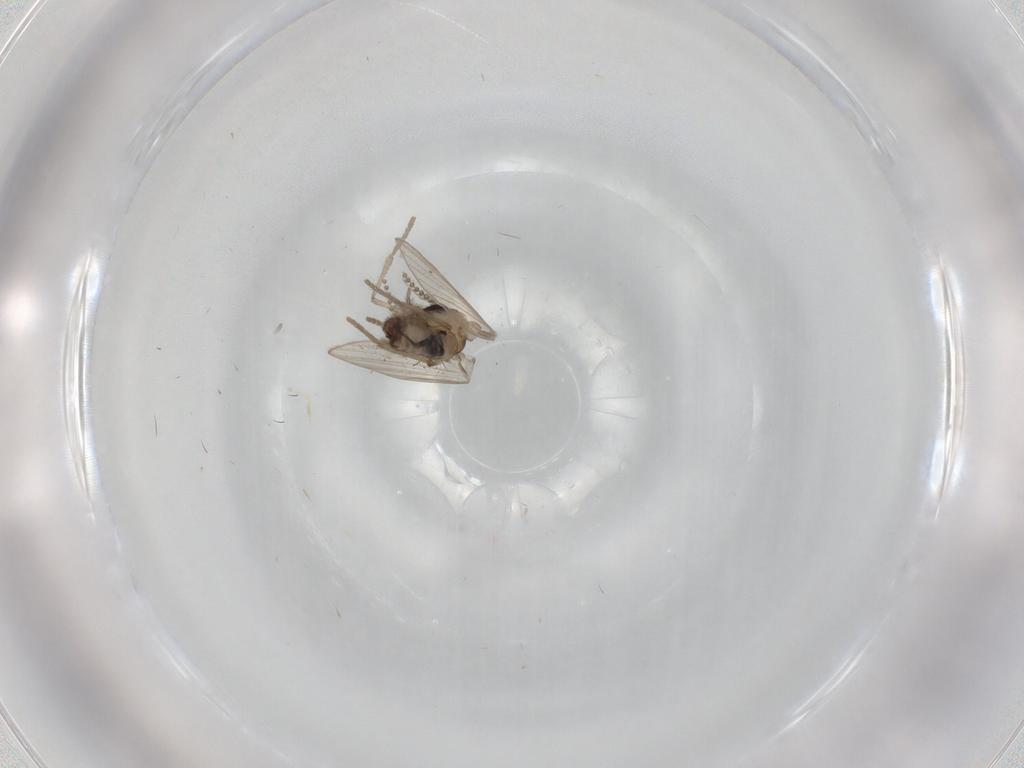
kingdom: Animalia
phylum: Arthropoda
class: Insecta
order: Diptera
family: Psychodidae
